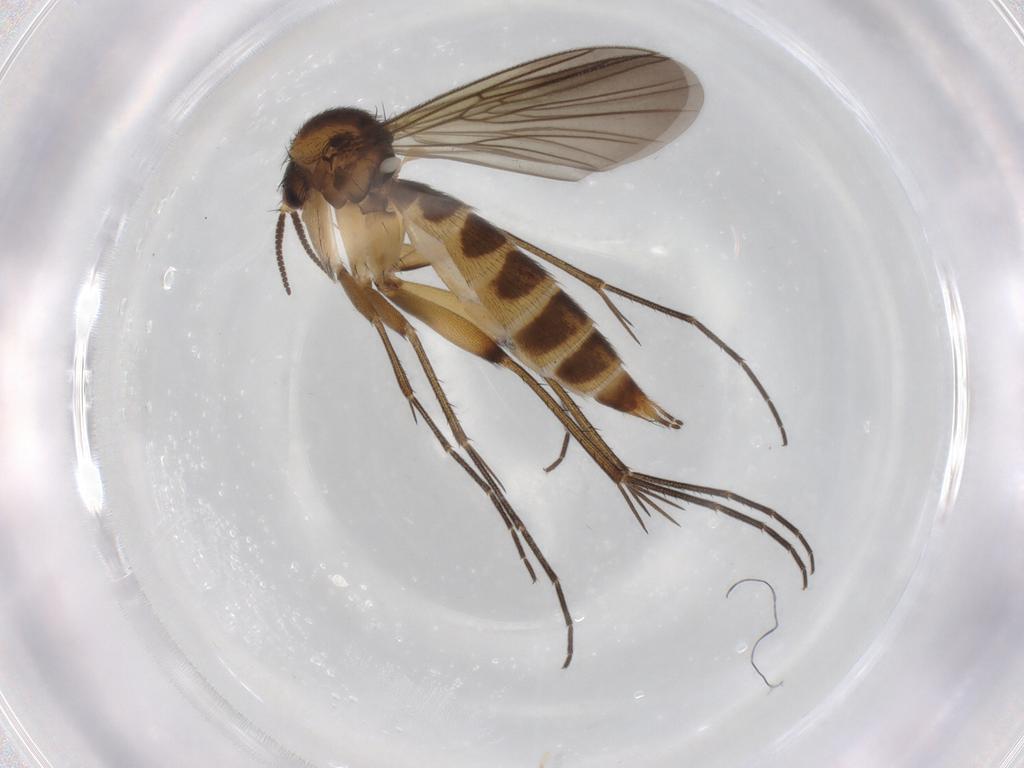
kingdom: Animalia
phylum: Arthropoda
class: Insecta
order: Diptera
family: Mycetophilidae
